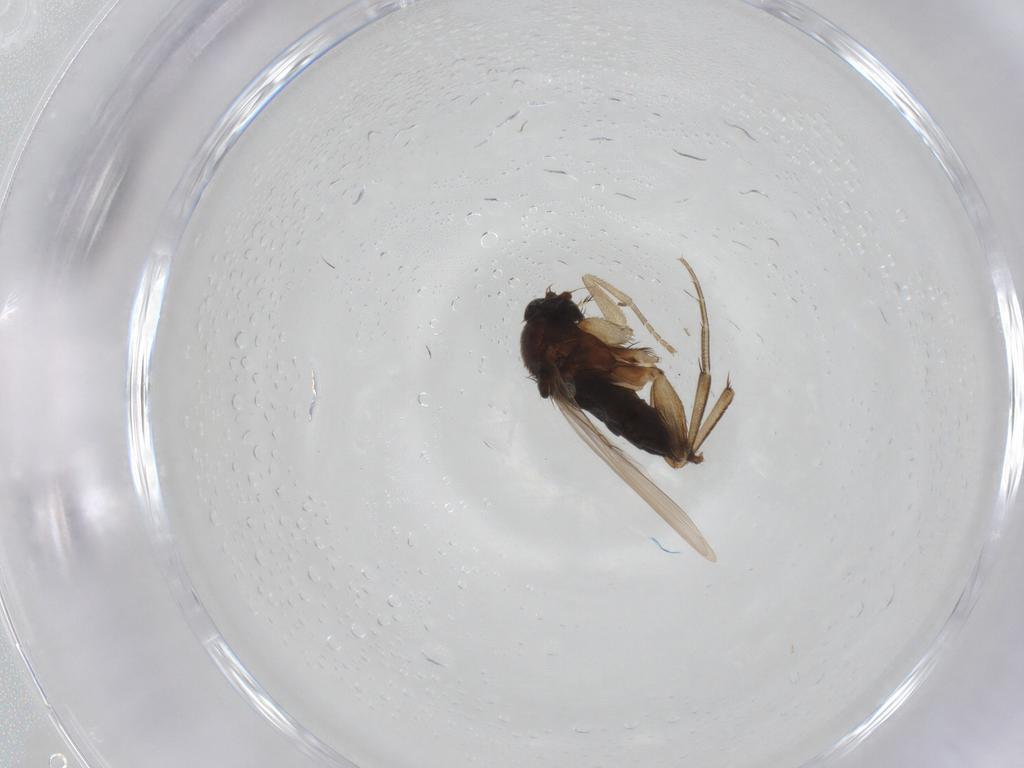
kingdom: Animalia
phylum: Arthropoda
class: Insecta
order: Diptera
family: Phoridae
